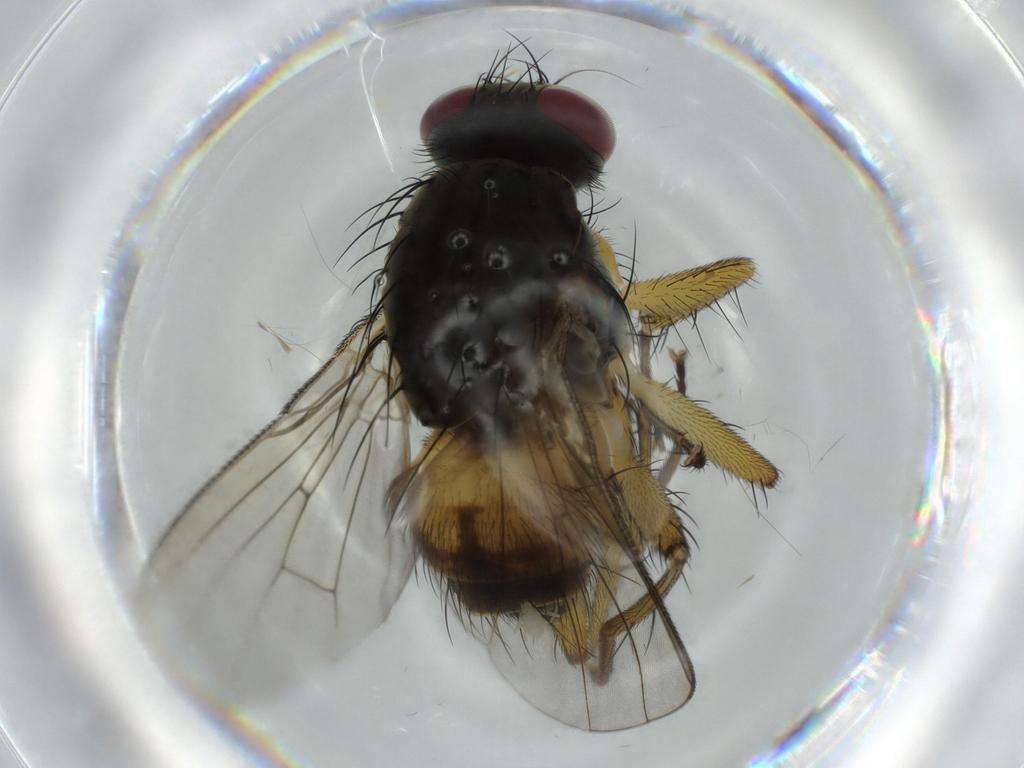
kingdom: Animalia
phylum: Arthropoda
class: Insecta
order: Diptera
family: Muscidae
